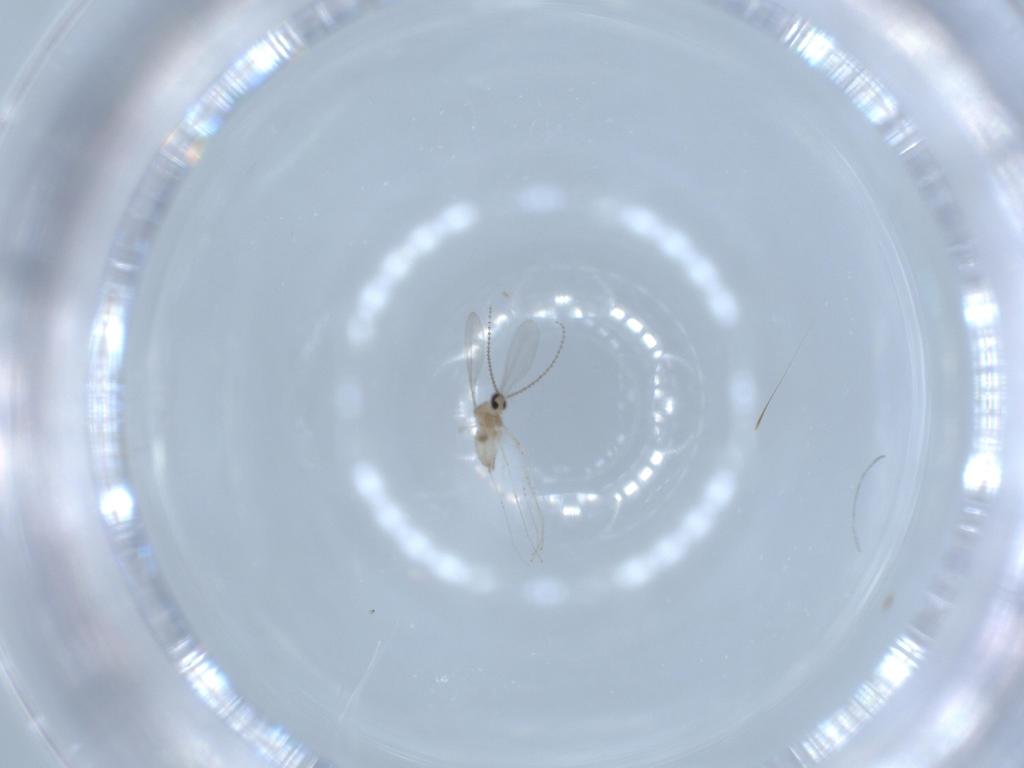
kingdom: Animalia
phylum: Arthropoda
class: Insecta
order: Diptera
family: Cecidomyiidae
